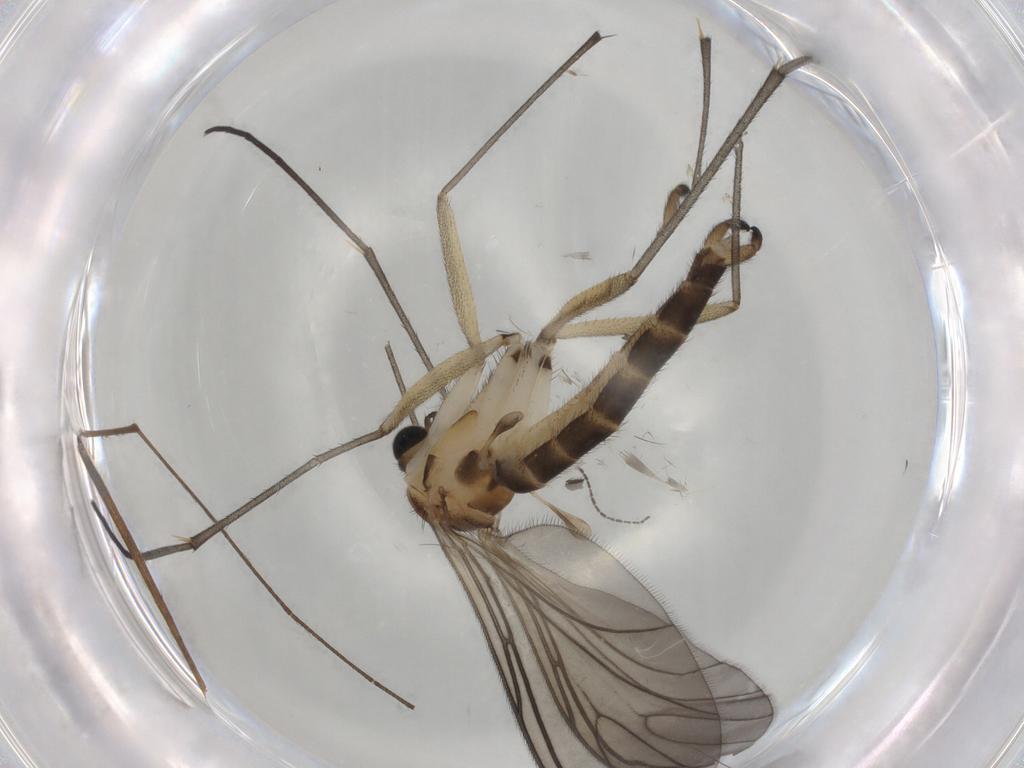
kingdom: Animalia
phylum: Arthropoda
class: Insecta
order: Diptera
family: Sciaridae
